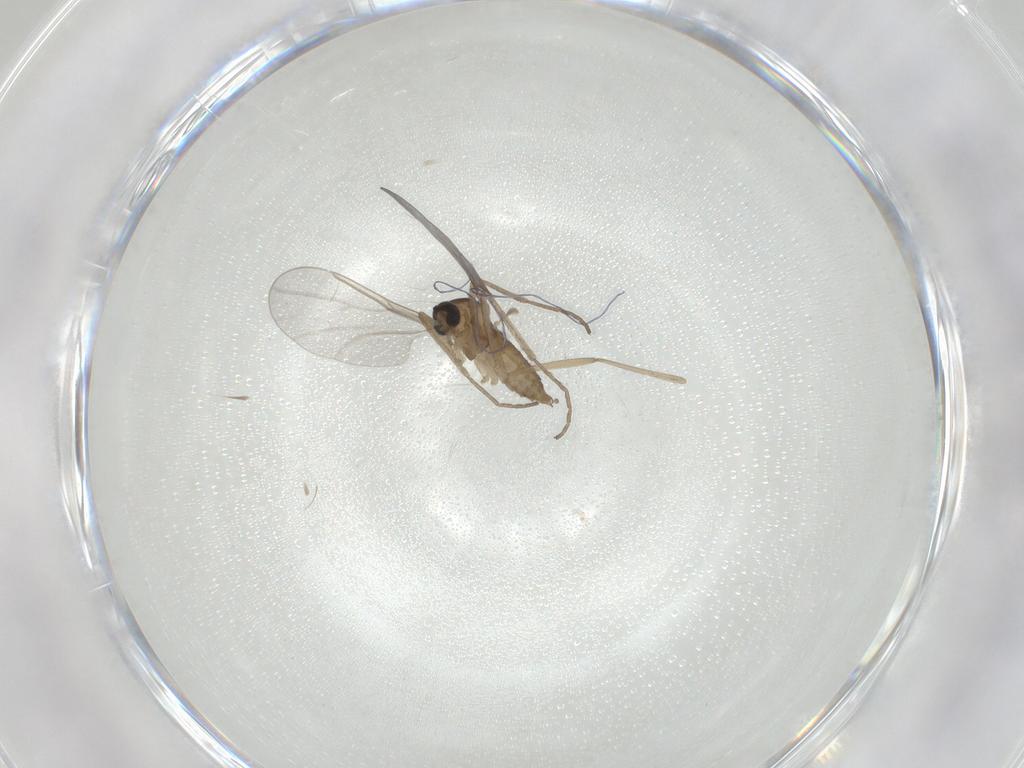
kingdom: Animalia
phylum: Arthropoda
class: Insecta
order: Diptera
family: Cecidomyiidae
